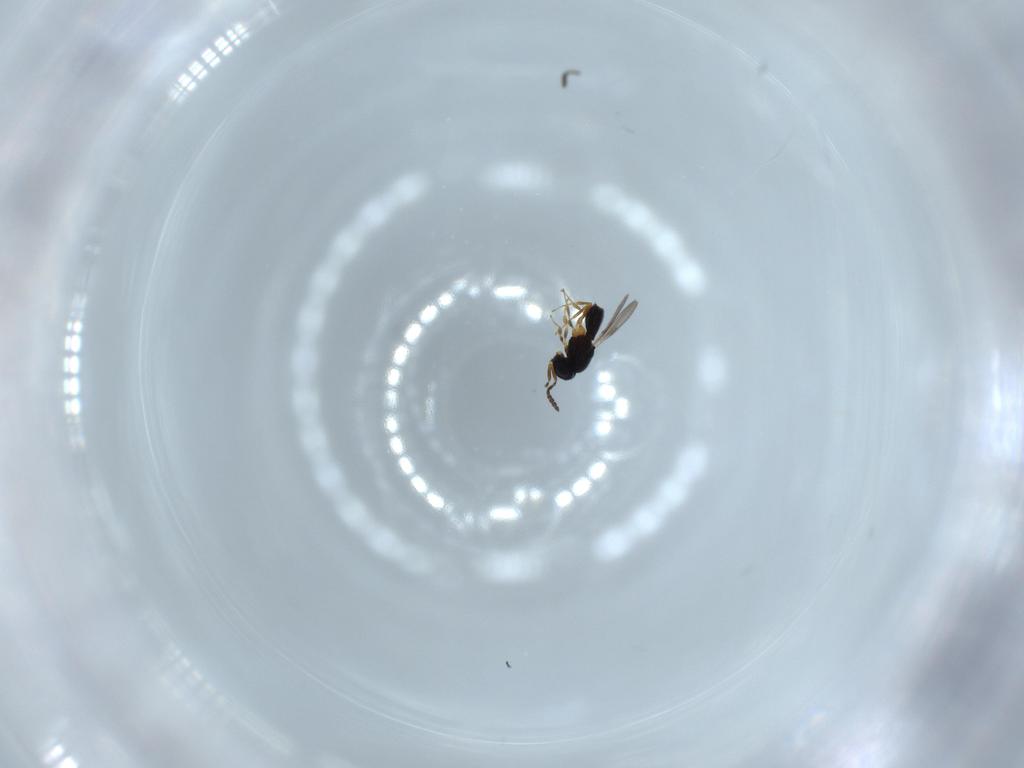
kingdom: Animalia
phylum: Arthropoda
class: Insecta
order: Hymenoptera
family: Scelionidae
